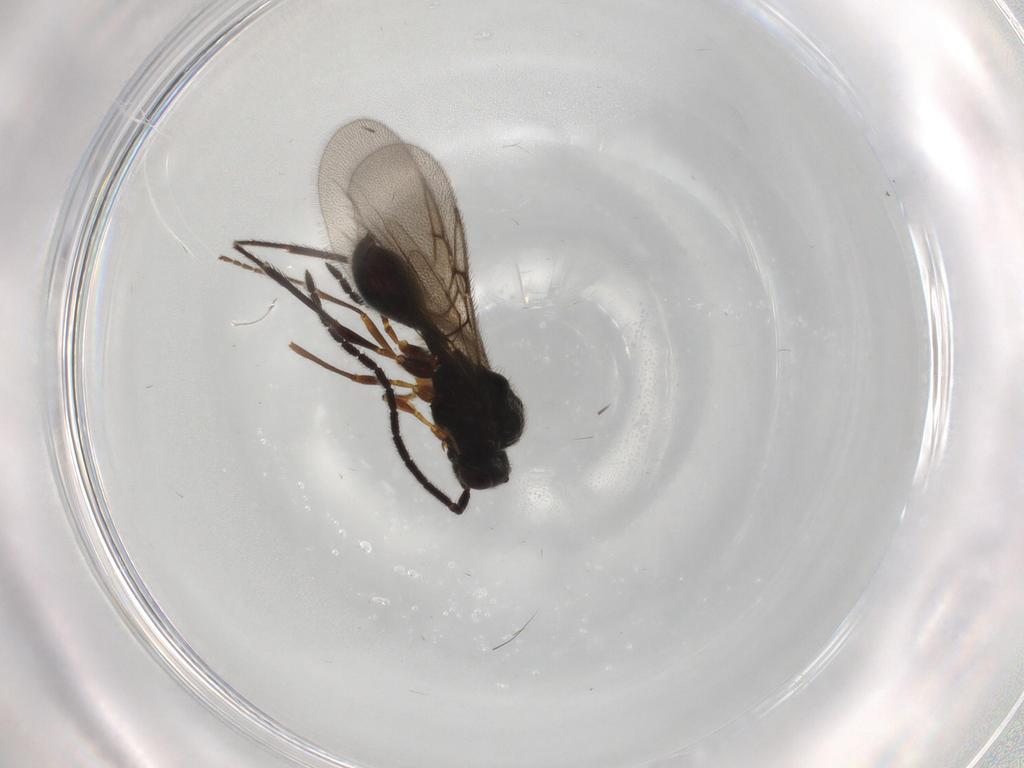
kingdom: Animalia
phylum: Arthropoda
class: Insecta
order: Hymenoptera
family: Diapriidae
